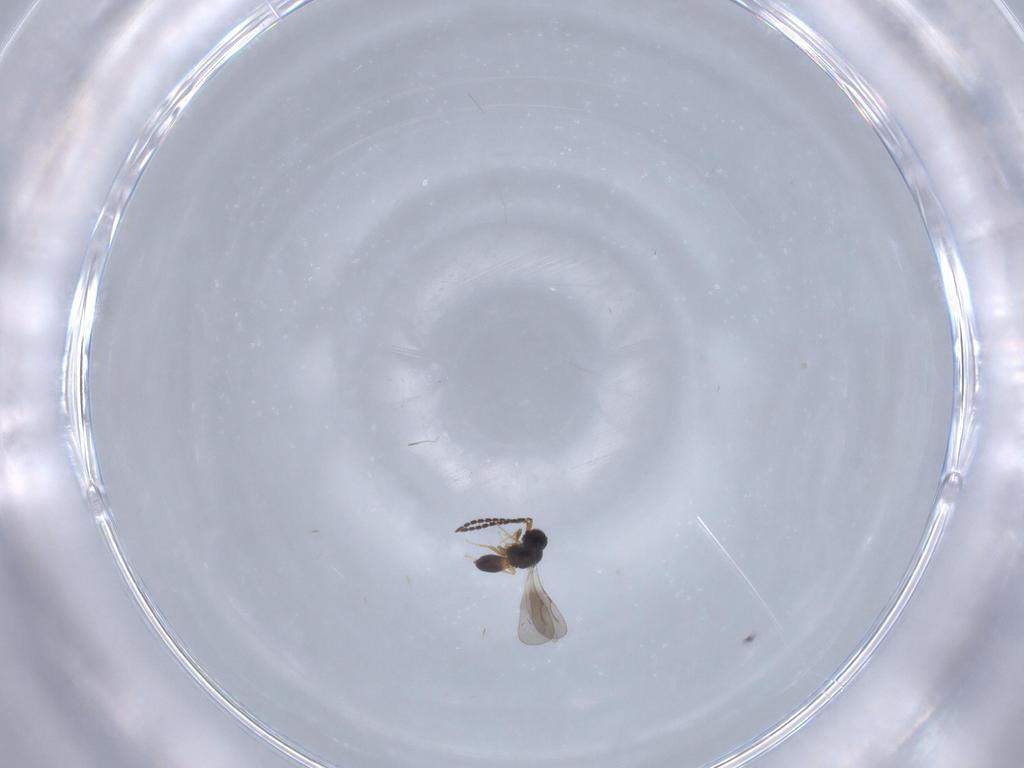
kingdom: Animalia
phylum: Arthropoda
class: Insecta
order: Hymenoptera
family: Ceraphronidae
